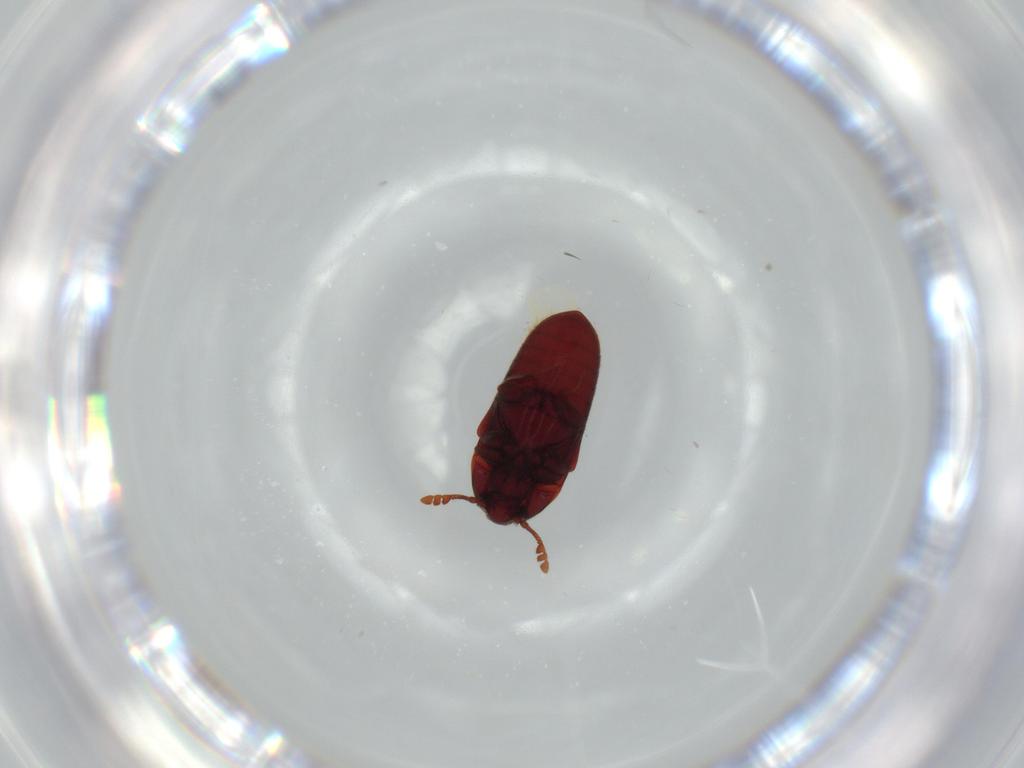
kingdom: Animalia
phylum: Arthropoda
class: Insecta
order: Coleoptera
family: Throscidae
